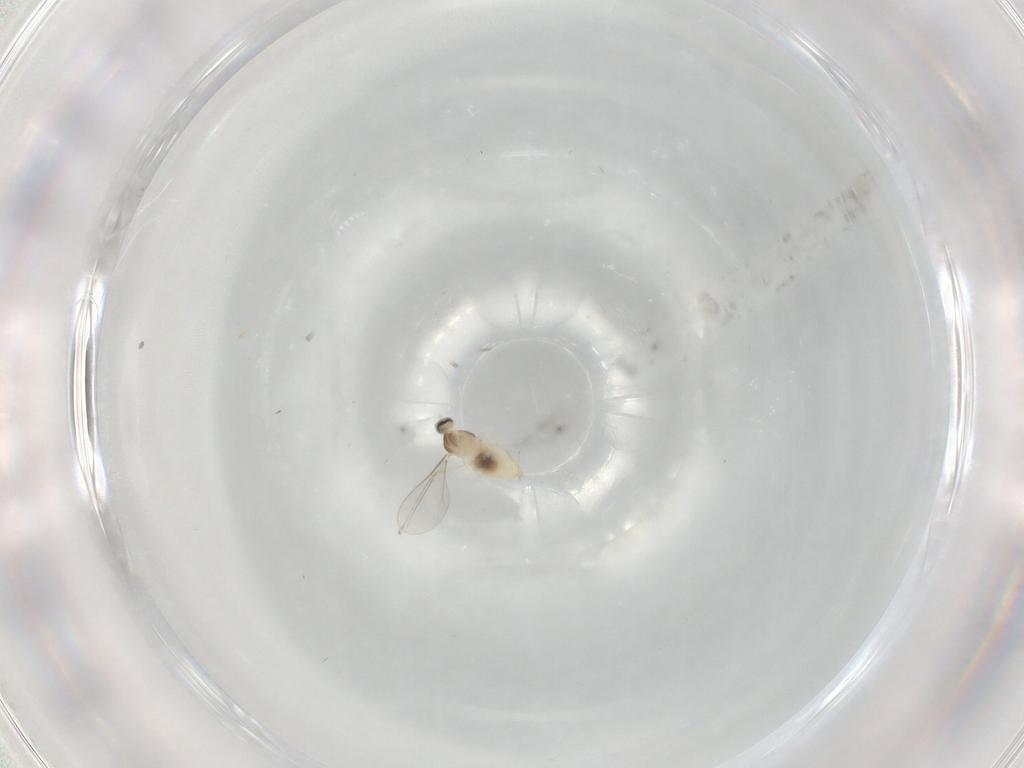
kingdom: Animalia
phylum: Arthropoda
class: Insecta
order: Diptera
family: Cecidomyiidae
